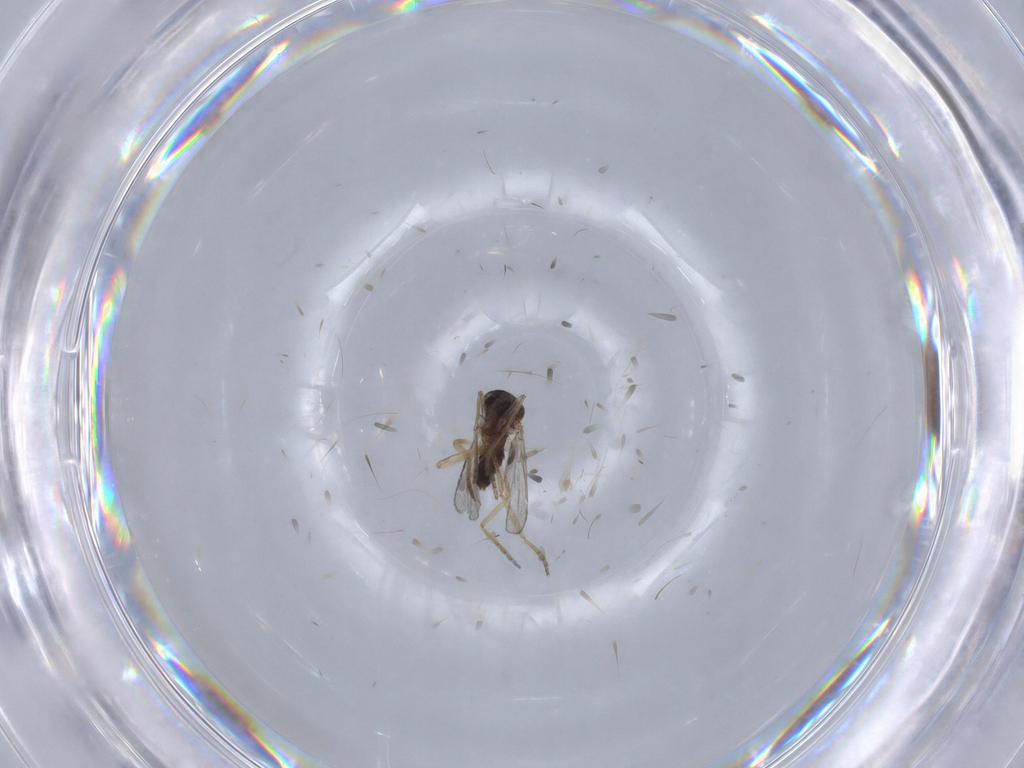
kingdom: Animalia
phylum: Arthropoda
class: Insecta
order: Diptera
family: Ceratopogonidae
